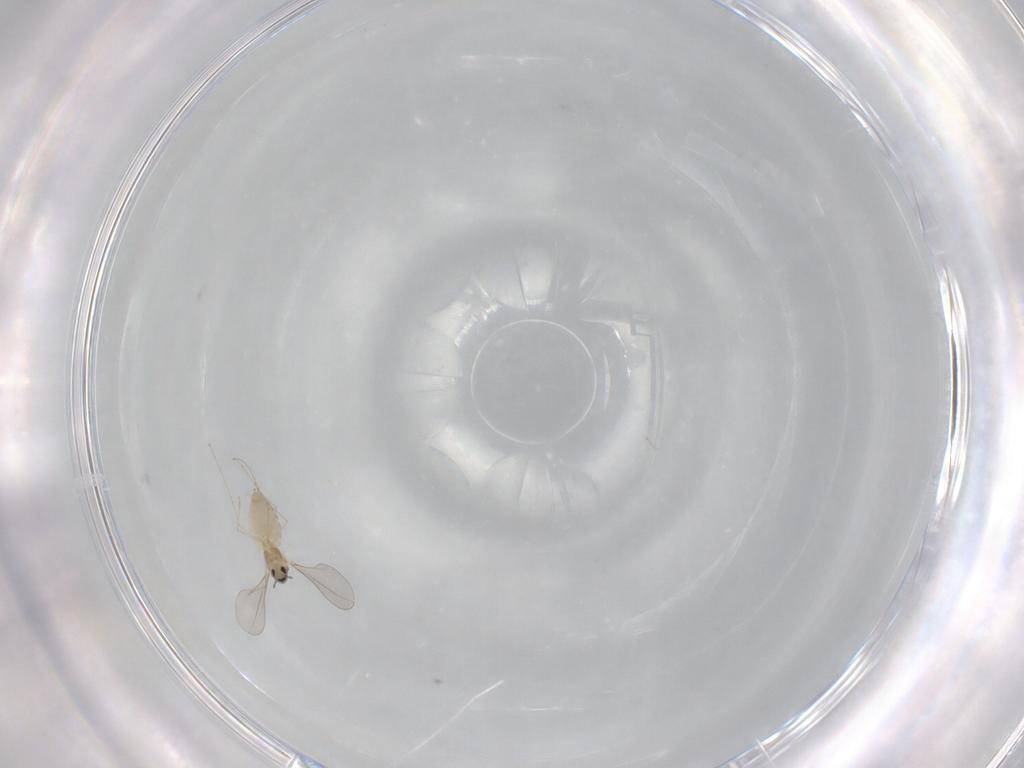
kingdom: Animalia
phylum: Arthropoda
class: Insecta
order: Diptera
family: Cecidomyiidae
